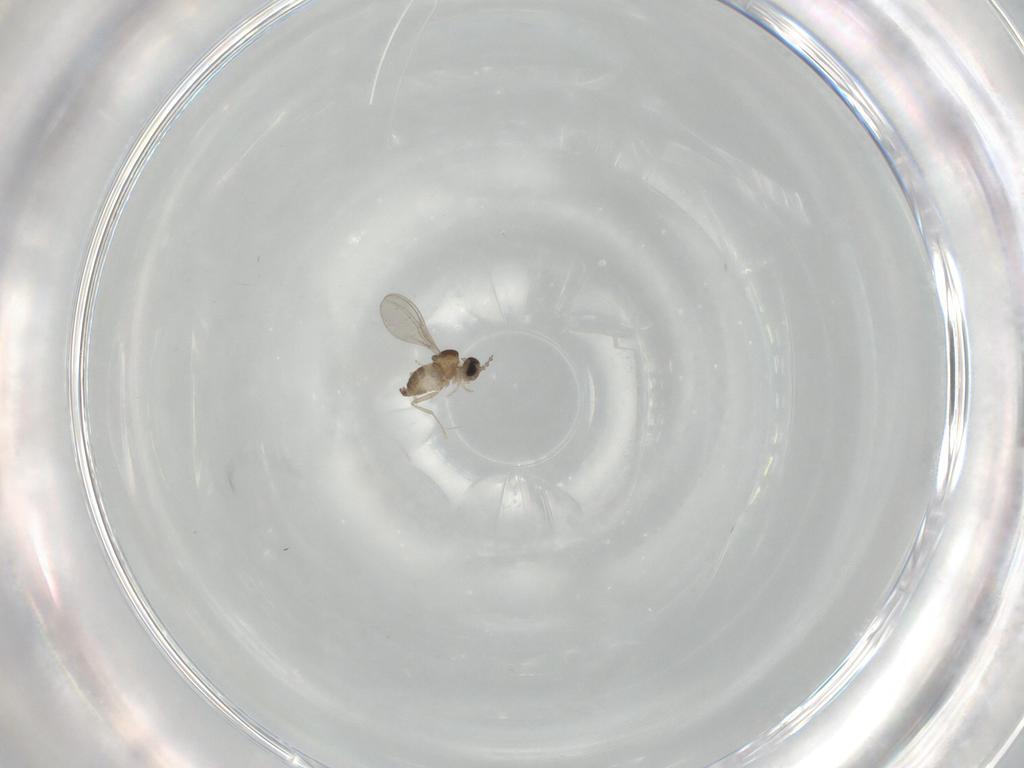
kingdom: Animalia
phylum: Arthropoda
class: Insecta
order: Diptera
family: Cecidomyiidae
